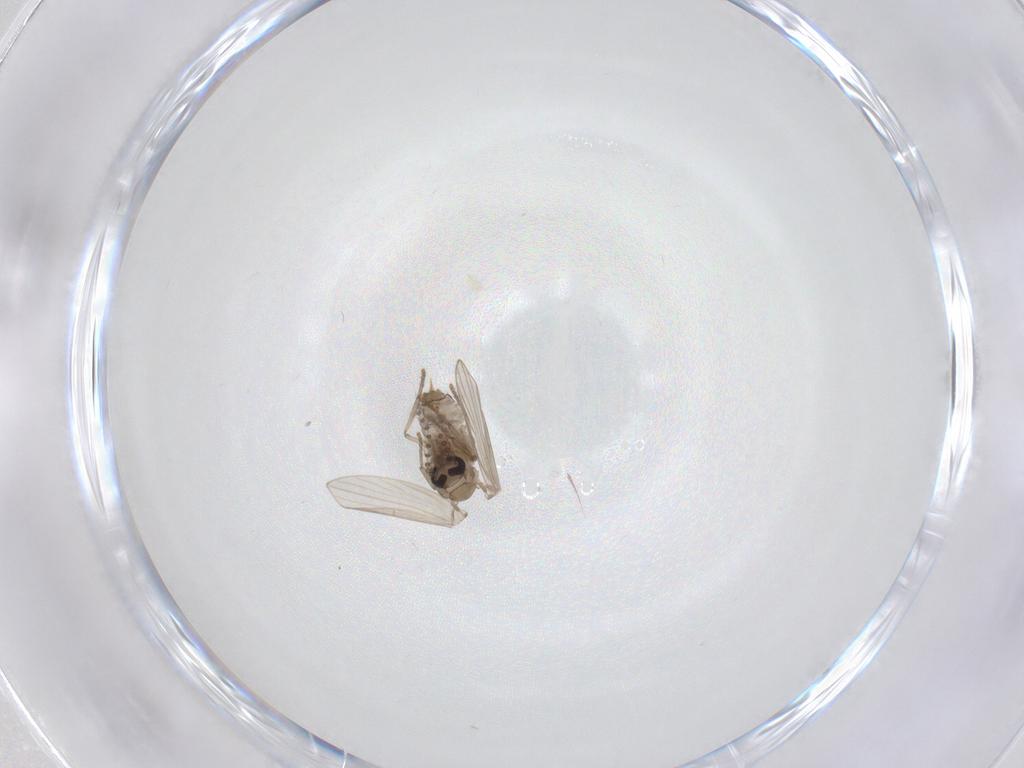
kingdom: Animalia
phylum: Arthropoda
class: Insecta
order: Diptera
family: Psychodidae
